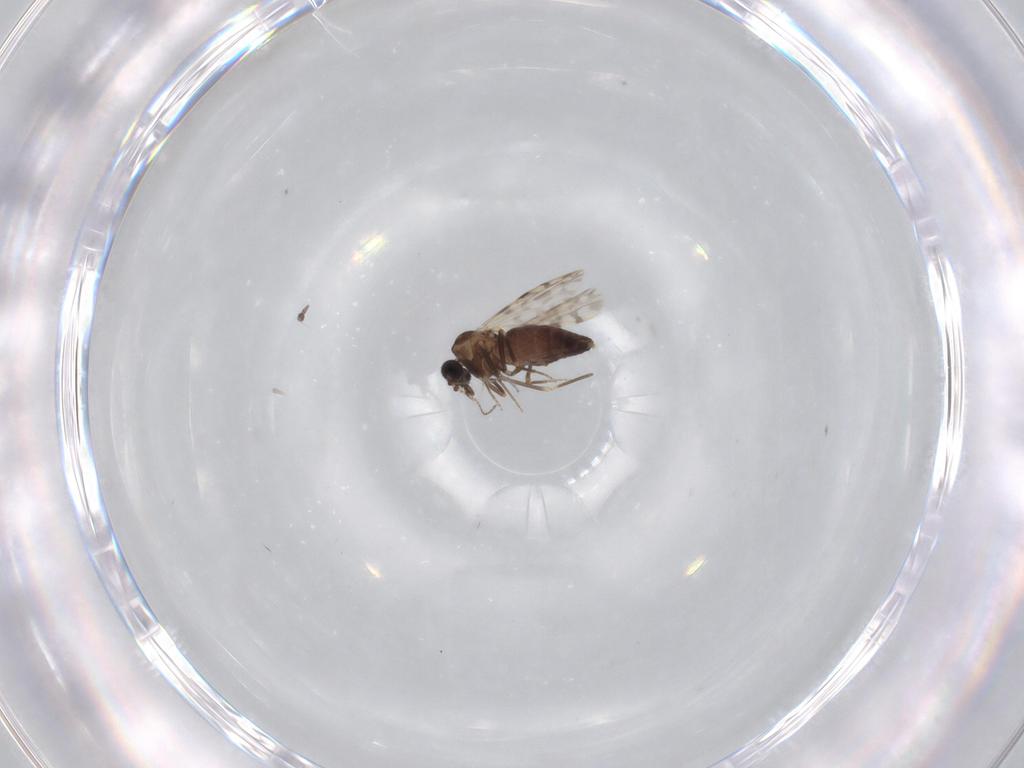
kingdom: Animalia
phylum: Arthropoda
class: Insecta
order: Diptera
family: Ceratopogonidae
